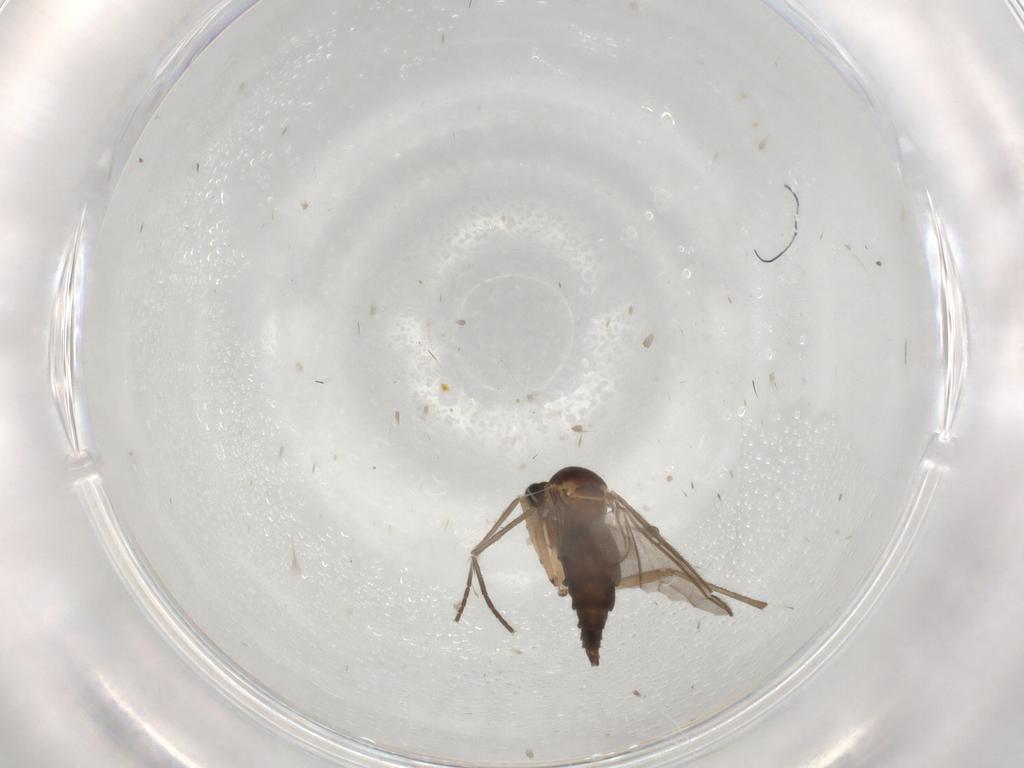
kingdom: Animalia
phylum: Arthropoda
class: Insecta
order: Diptera
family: Sciaridae
